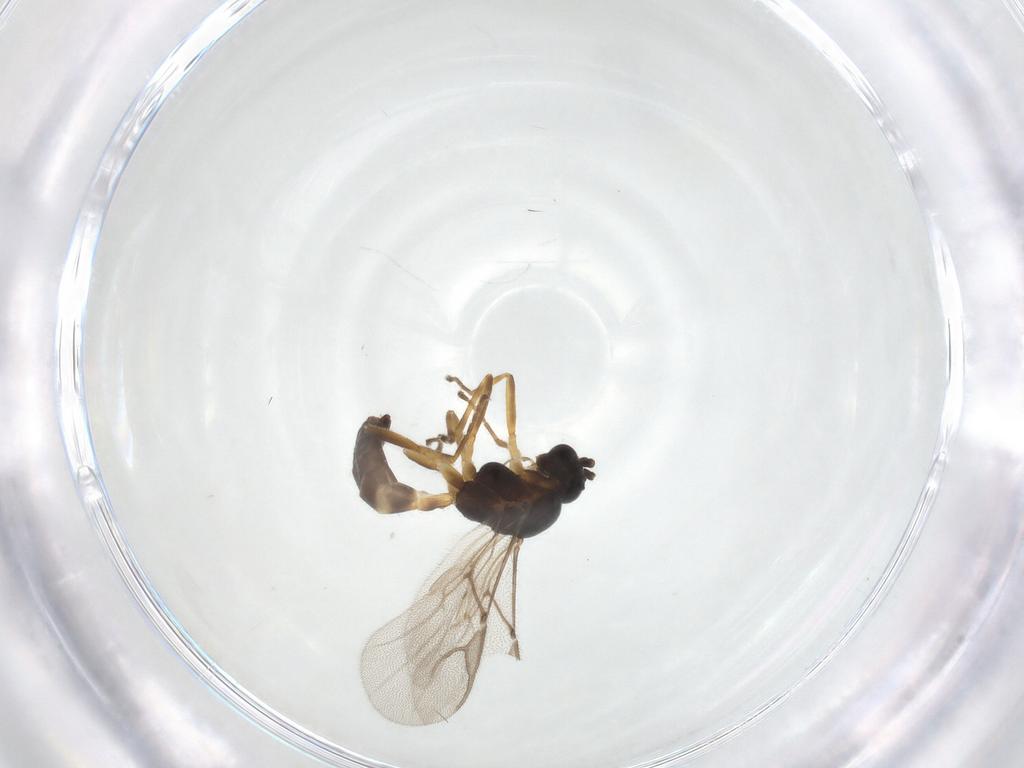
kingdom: Animalia
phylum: Arthropoda
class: Insecta
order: Hymenoptera
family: Braconidae
